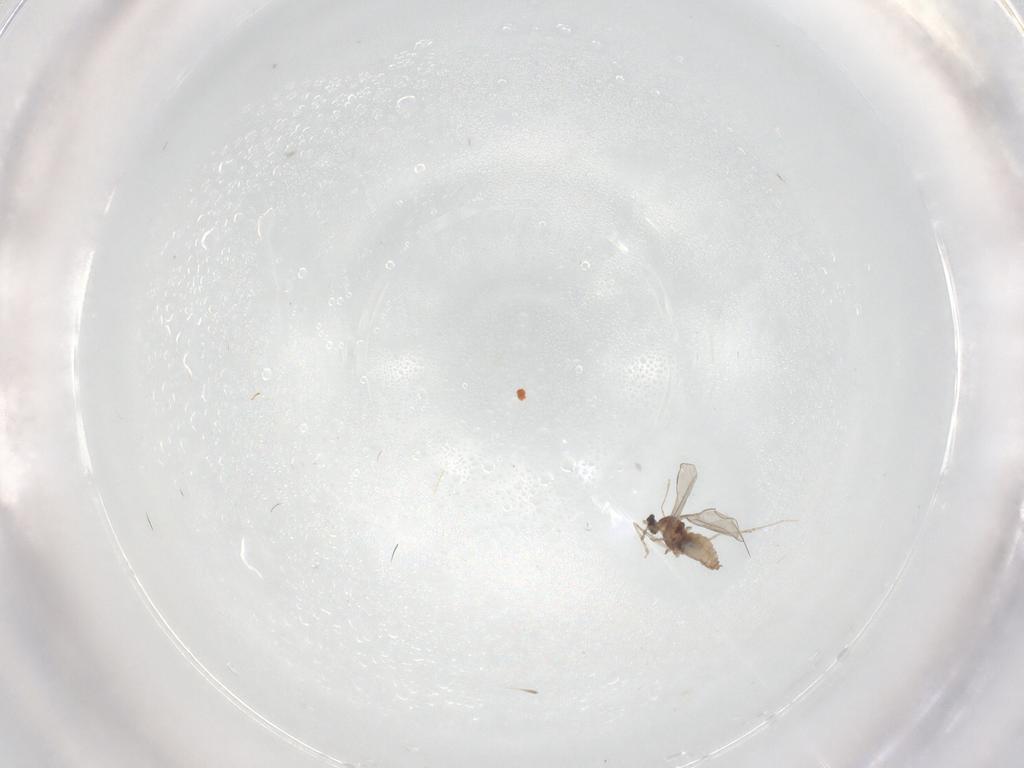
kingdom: Animalia
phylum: Arthropoda
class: Insecta
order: Diptera
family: Cecidomyiidae
